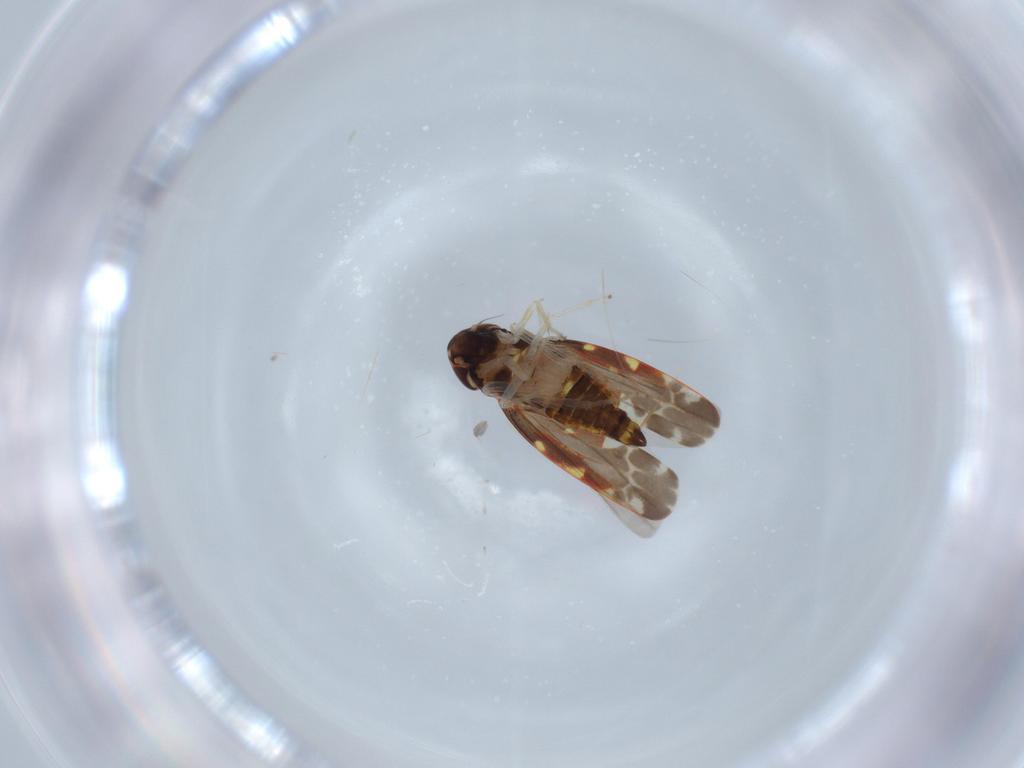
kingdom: Animalia
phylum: Arthropoda
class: Insecta
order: Hemiptera
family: Cicadellidae
